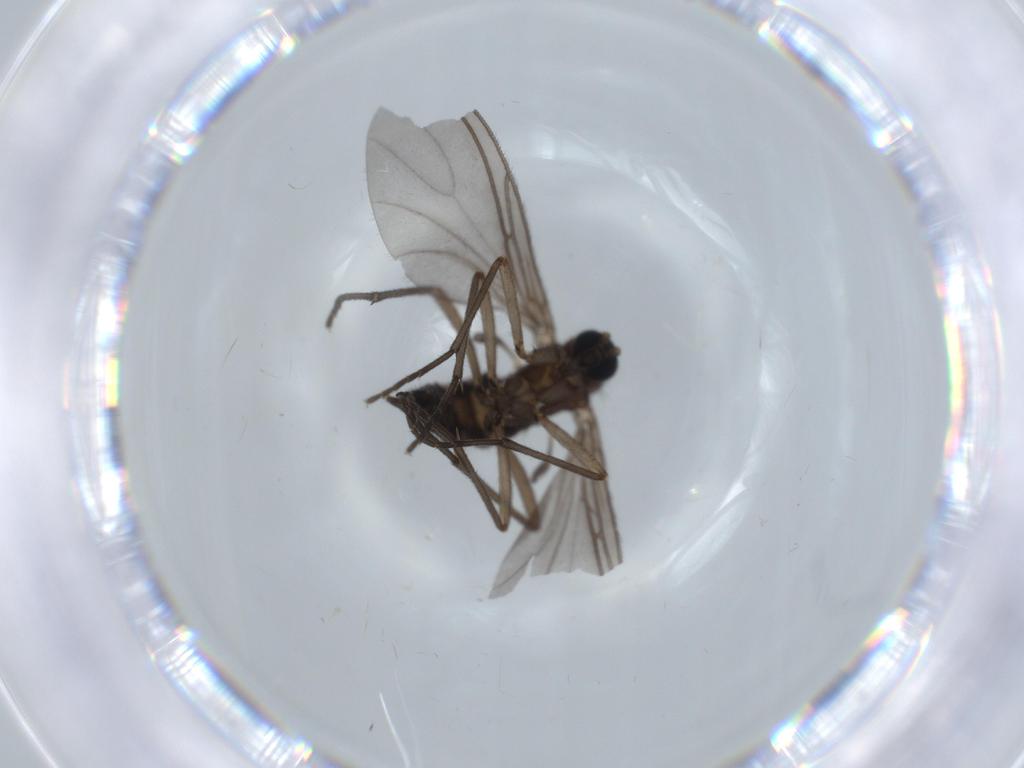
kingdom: Animalia
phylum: Arthropoda
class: Insecta
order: Diptera
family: Sciaridae
